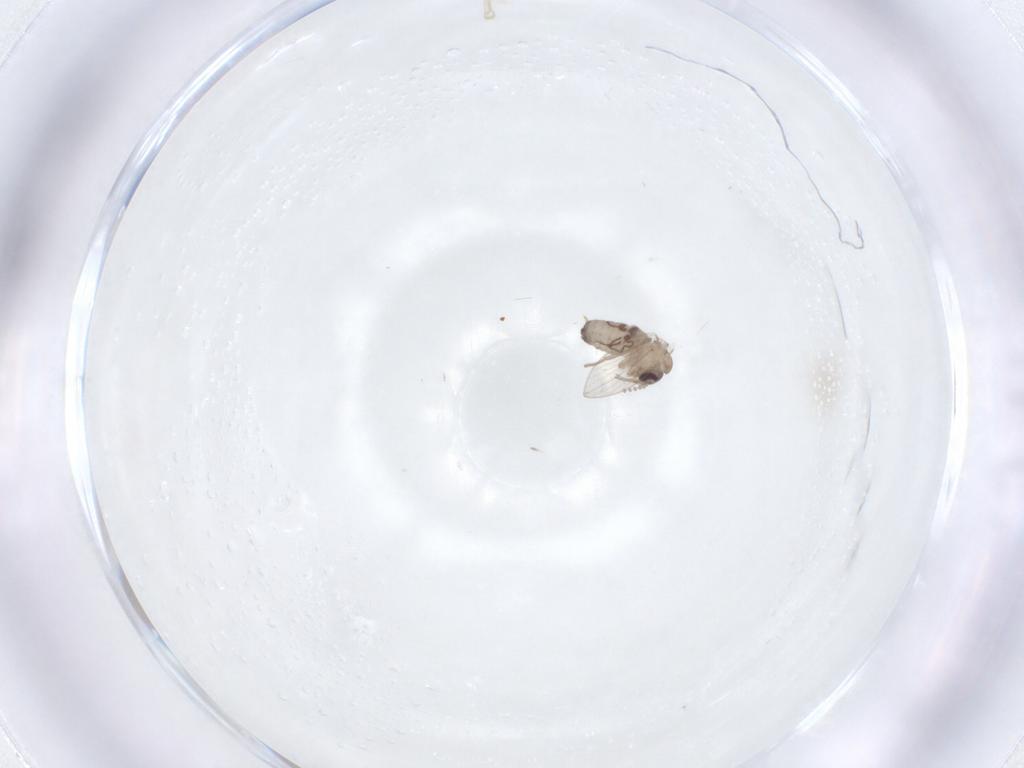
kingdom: Animalia
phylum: Arthropoda
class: Insecta
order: Diptera
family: Psychodidae
